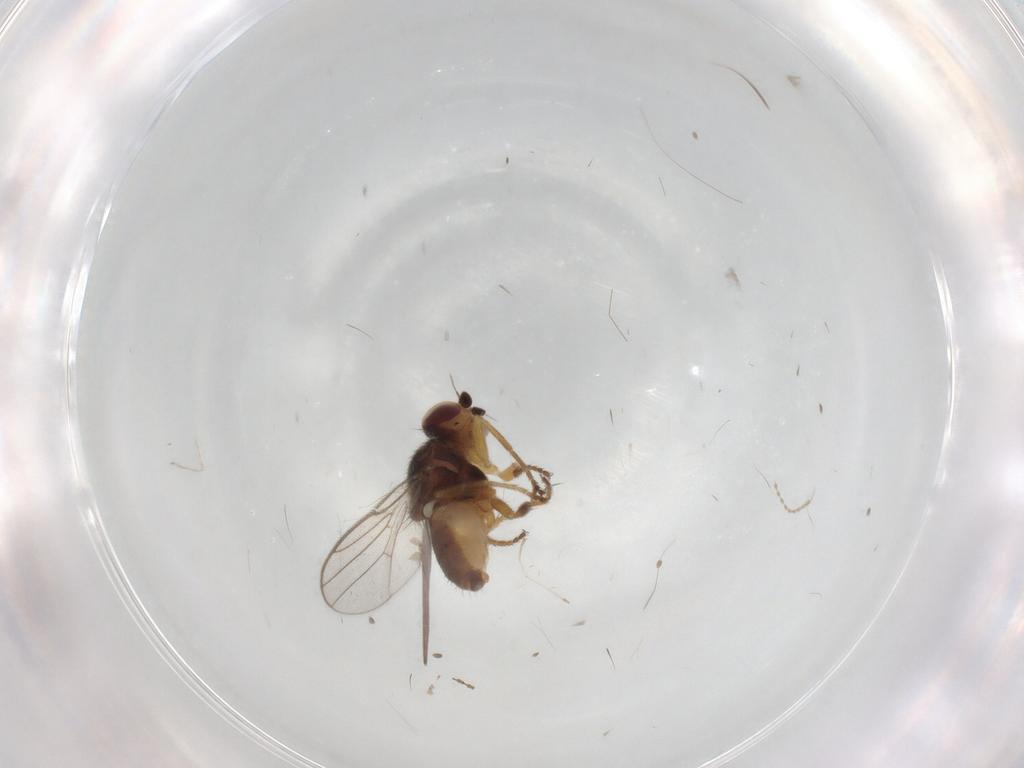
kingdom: Animalia
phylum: Arthropoda
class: Insecta
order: Diptera
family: Chloropidae
